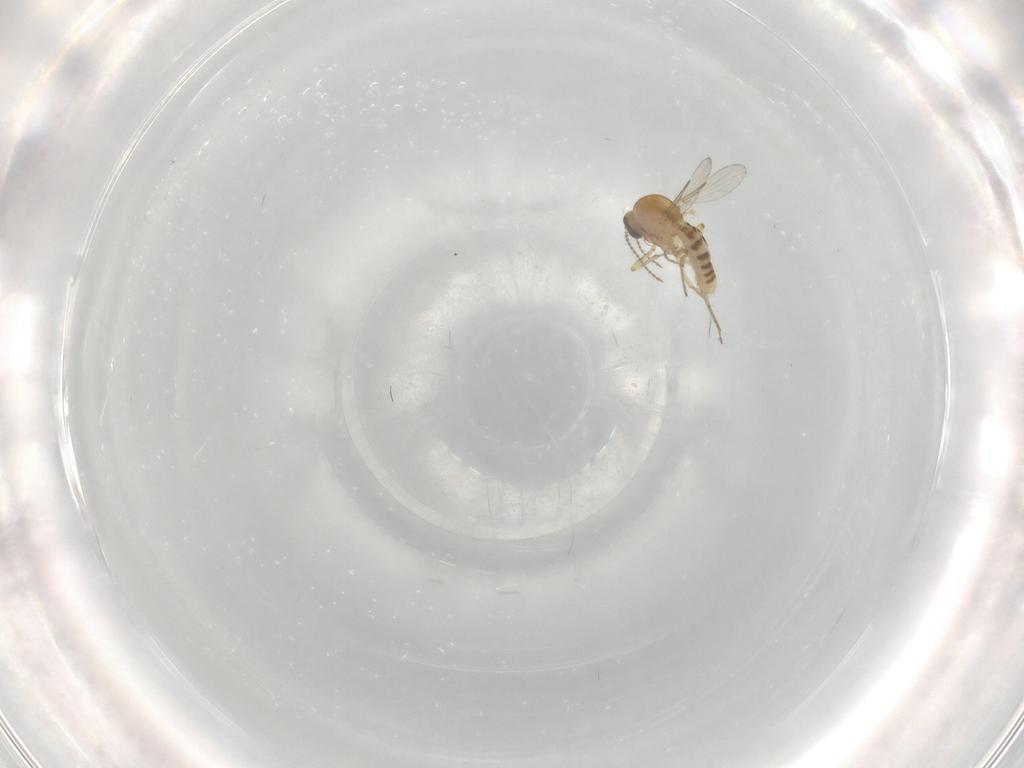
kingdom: Animalia
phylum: Arthropoda
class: Insecta
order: Diptera
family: Ceratopogonidae
